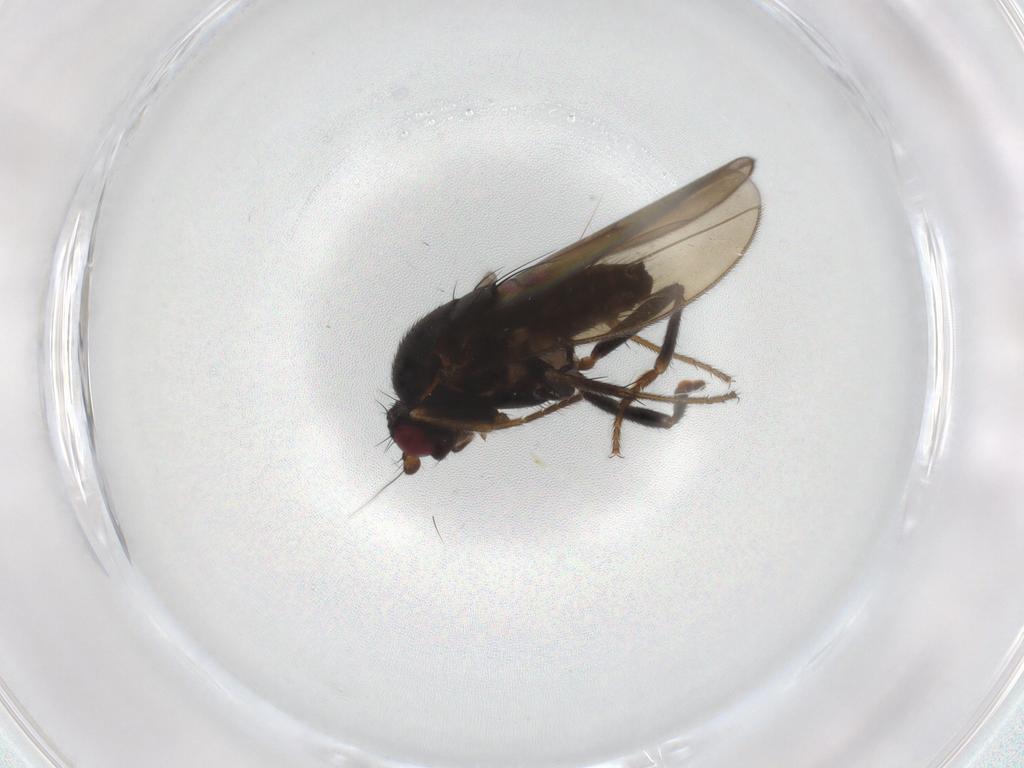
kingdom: Animalia
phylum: Arthropoda
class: Insecta
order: Diptera
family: Sphaeroceridae
